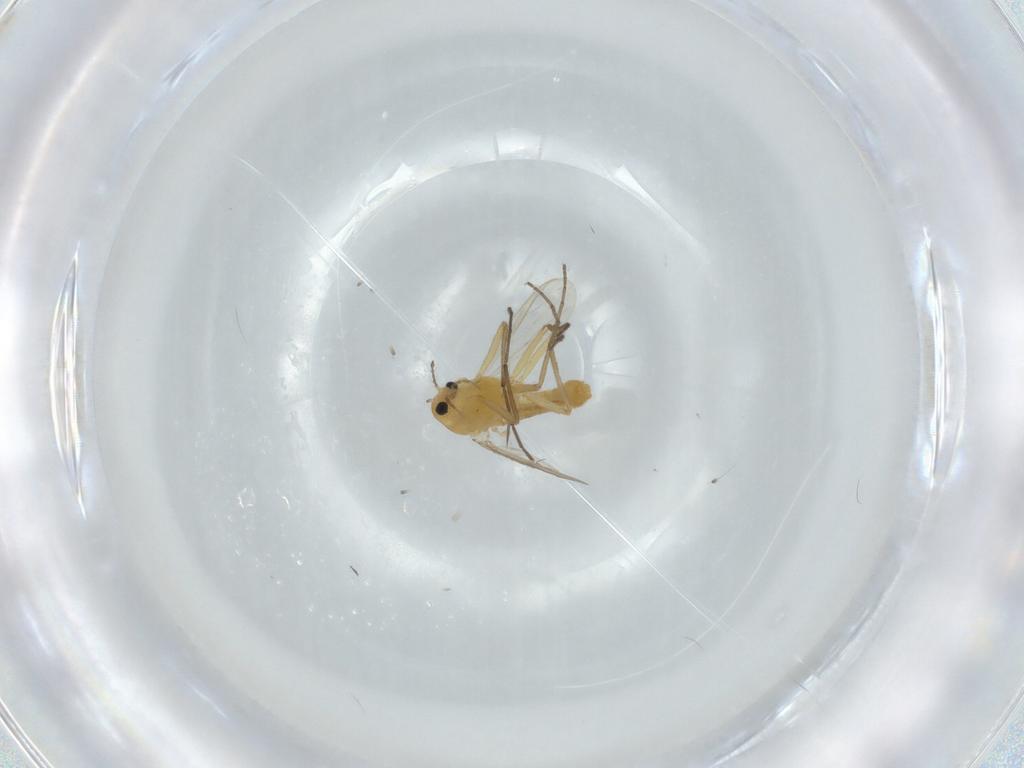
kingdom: Animalia
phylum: Arthropoda
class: Insecta
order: Diptera
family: Chironomidae
